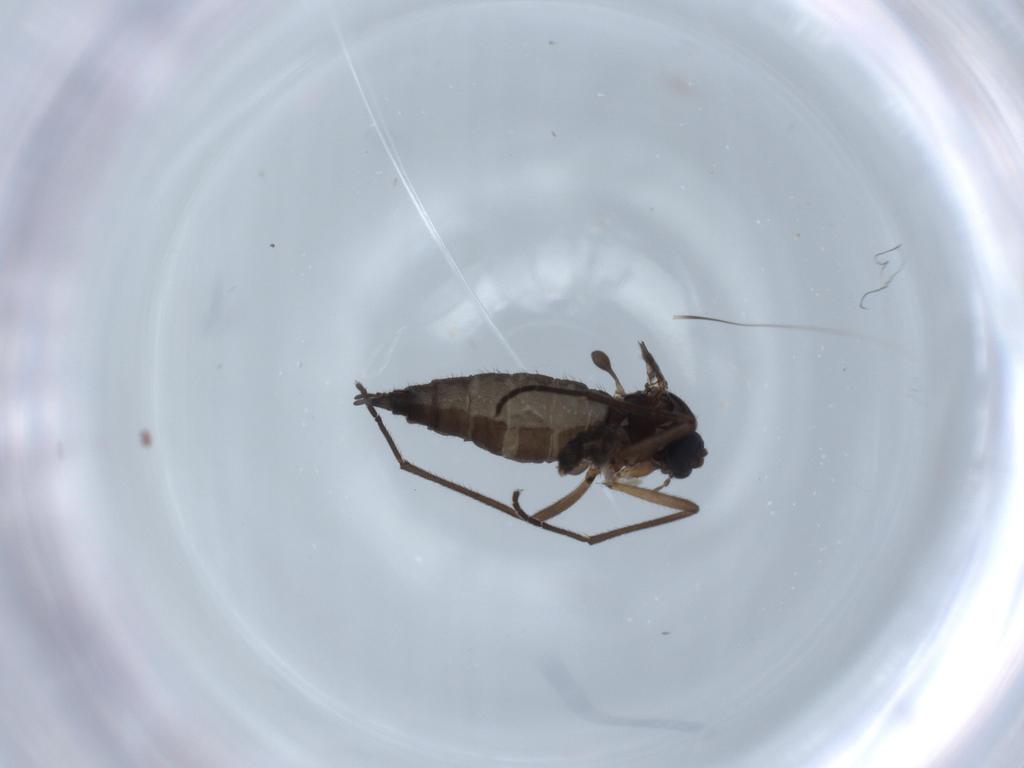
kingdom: Animalia
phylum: Arthropoda
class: Insecta
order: Diptera
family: Cecidomyiidae
